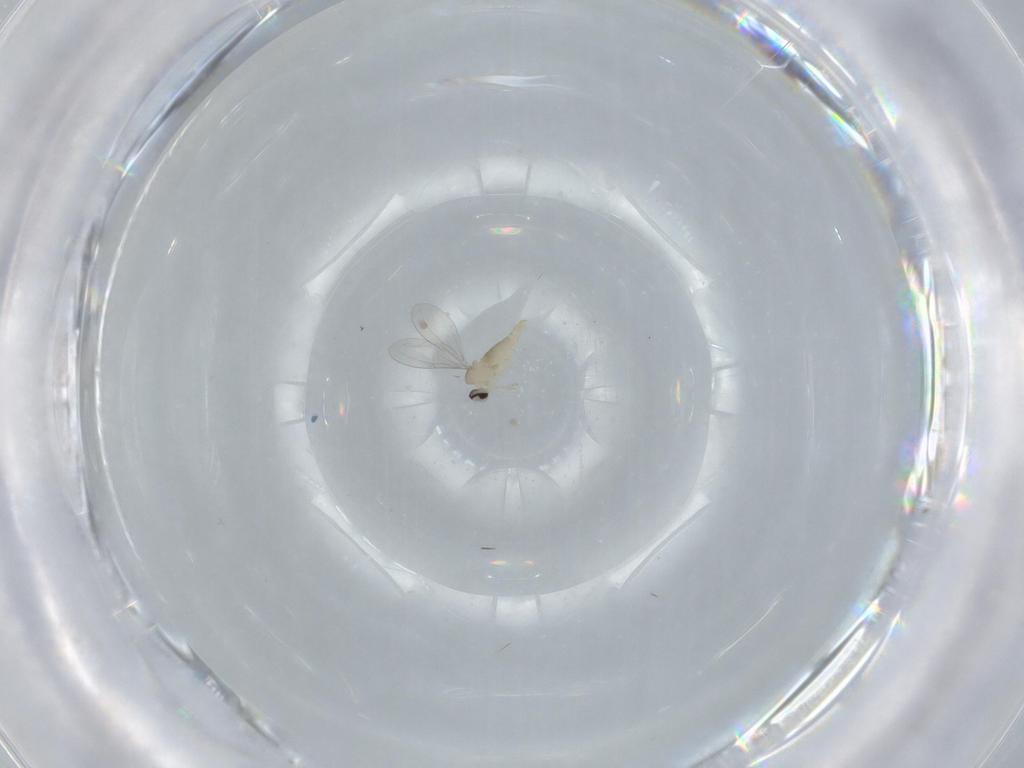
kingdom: Animalia
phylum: Arthropoda
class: Insecta
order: Diptera
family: Cecidomyiidae
